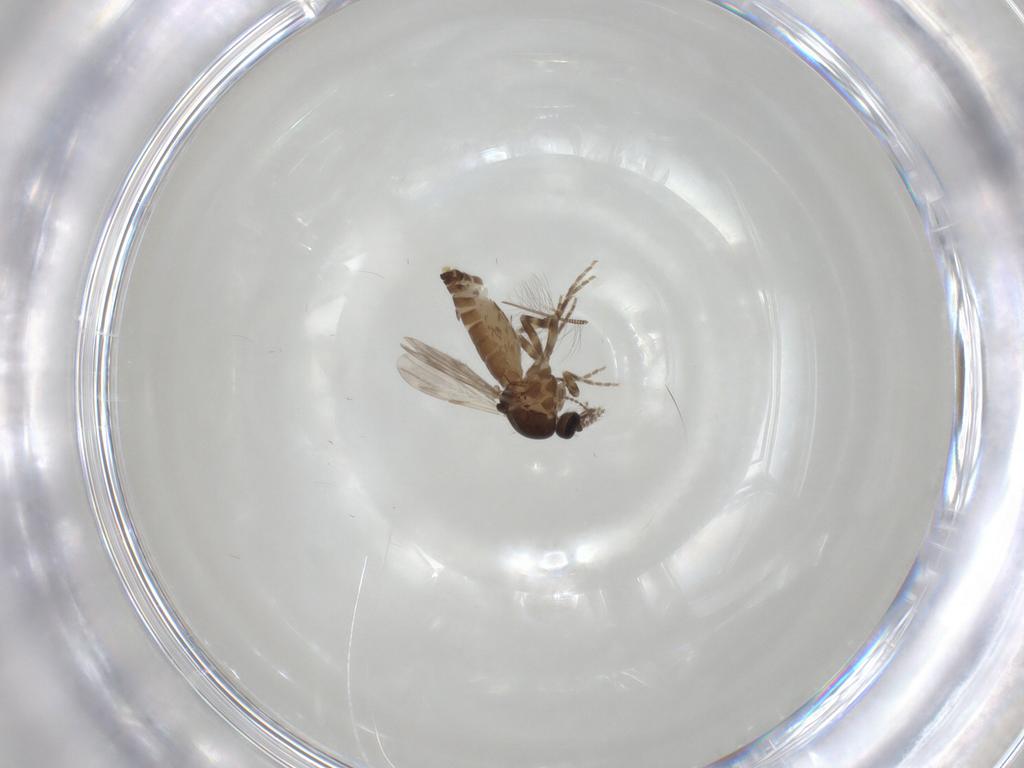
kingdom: Animalia
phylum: Arthropoda
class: Insecta
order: Diptera
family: Ceratopogonidae
